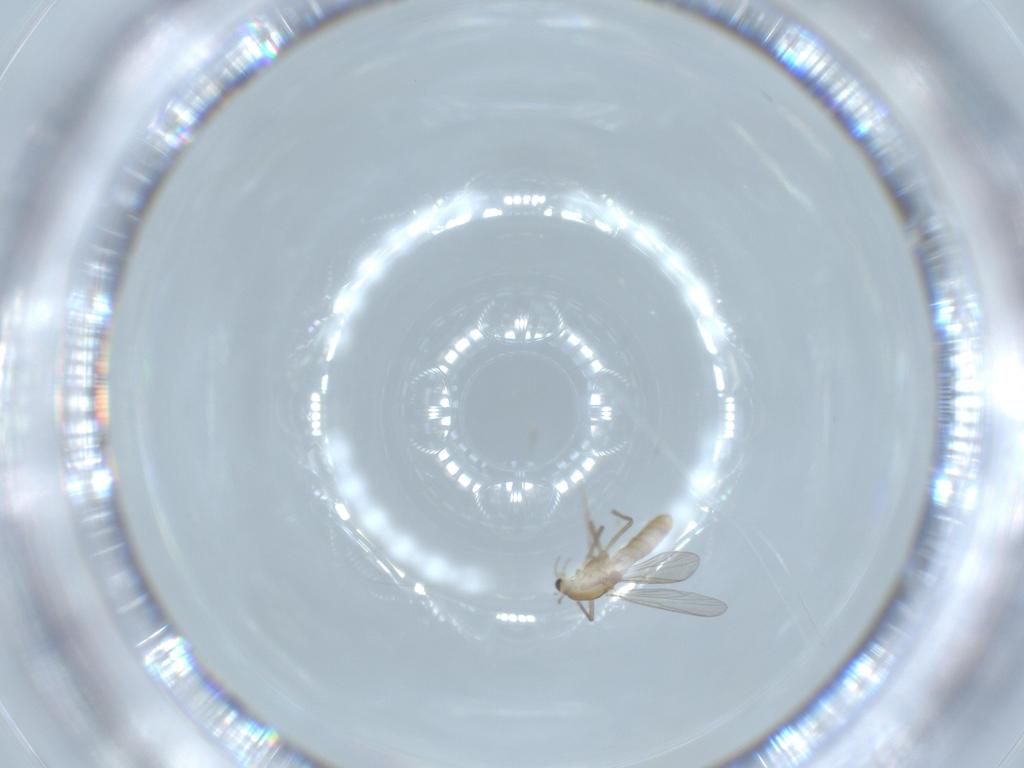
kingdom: Animalia
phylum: Arthropoda
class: Insecta
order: Diptera
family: Chironomidae
